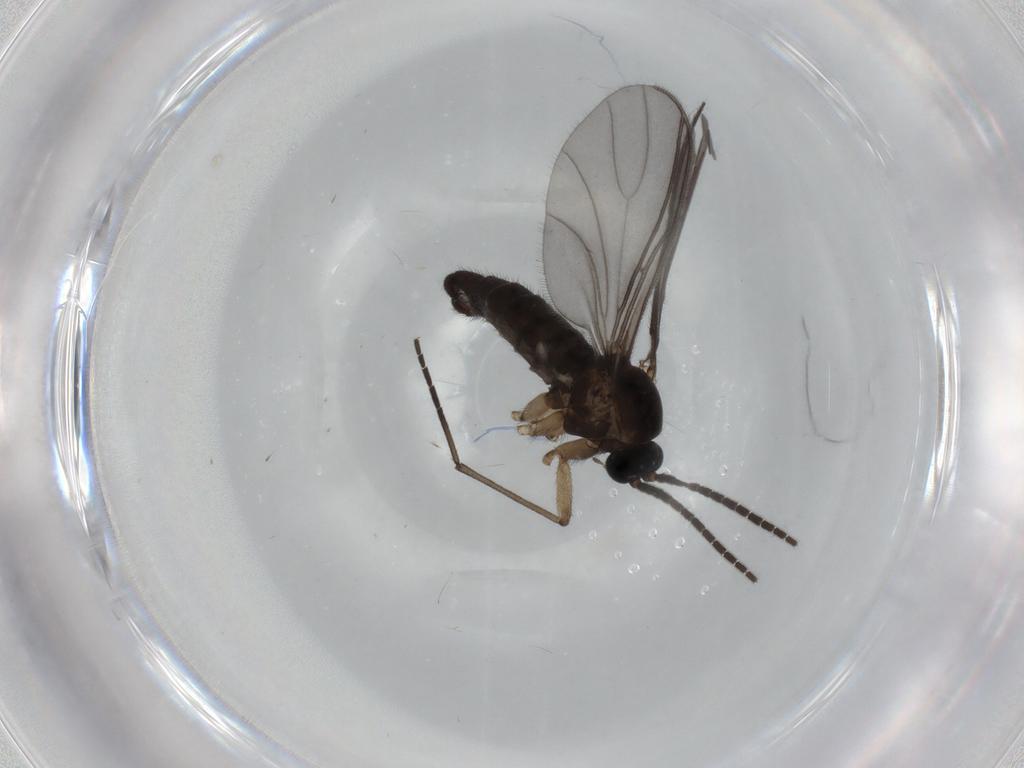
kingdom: Animalia
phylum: Arthropoda
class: Insecta
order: Diptera
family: Sciaridae
